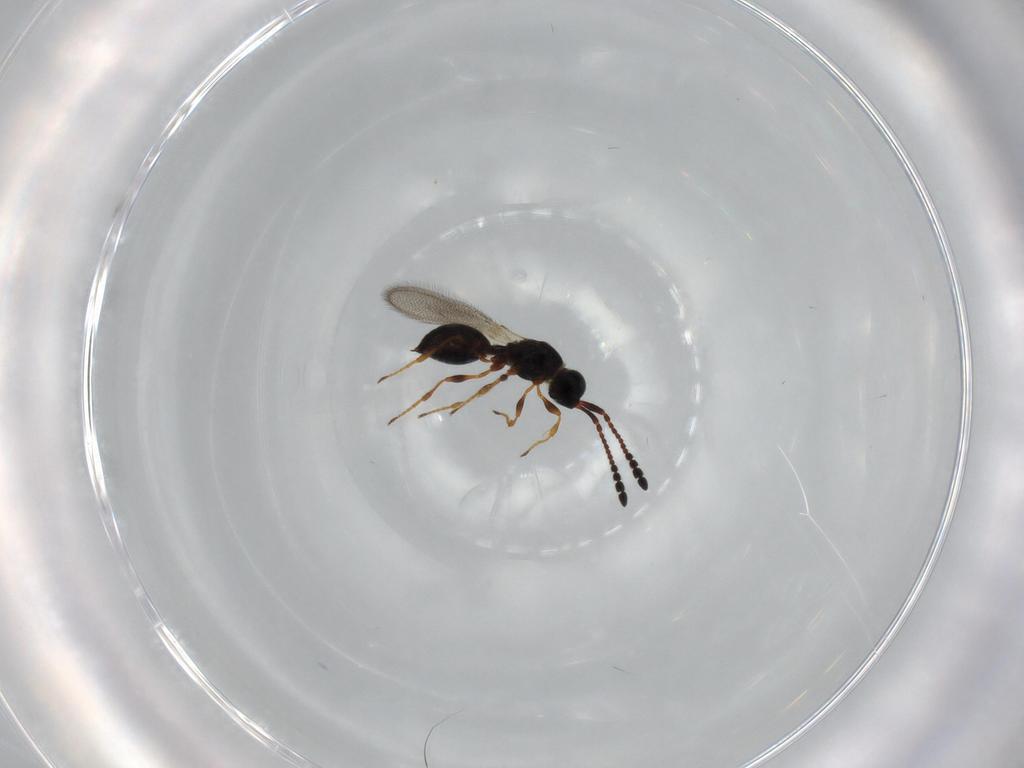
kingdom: Animalia
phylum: Arthropoda
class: Insecta
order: Hymenoptera
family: Diapriidae
